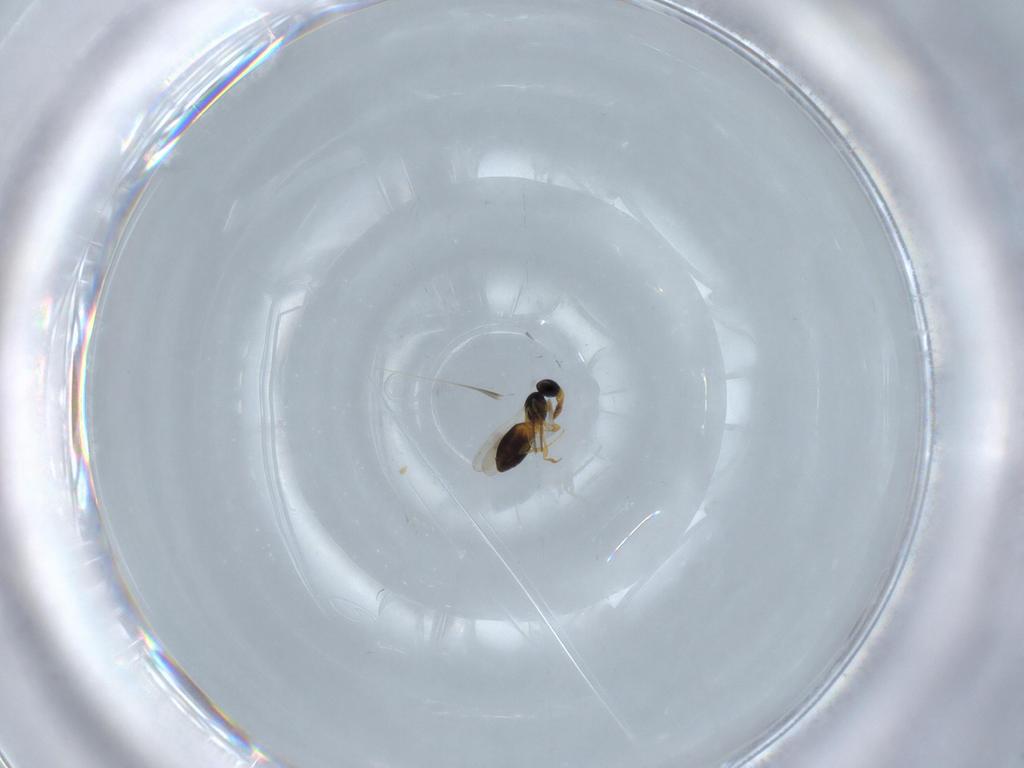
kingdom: Animalia
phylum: Arthropoda
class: Insecta
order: Hymenoptera
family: Platygastridae
